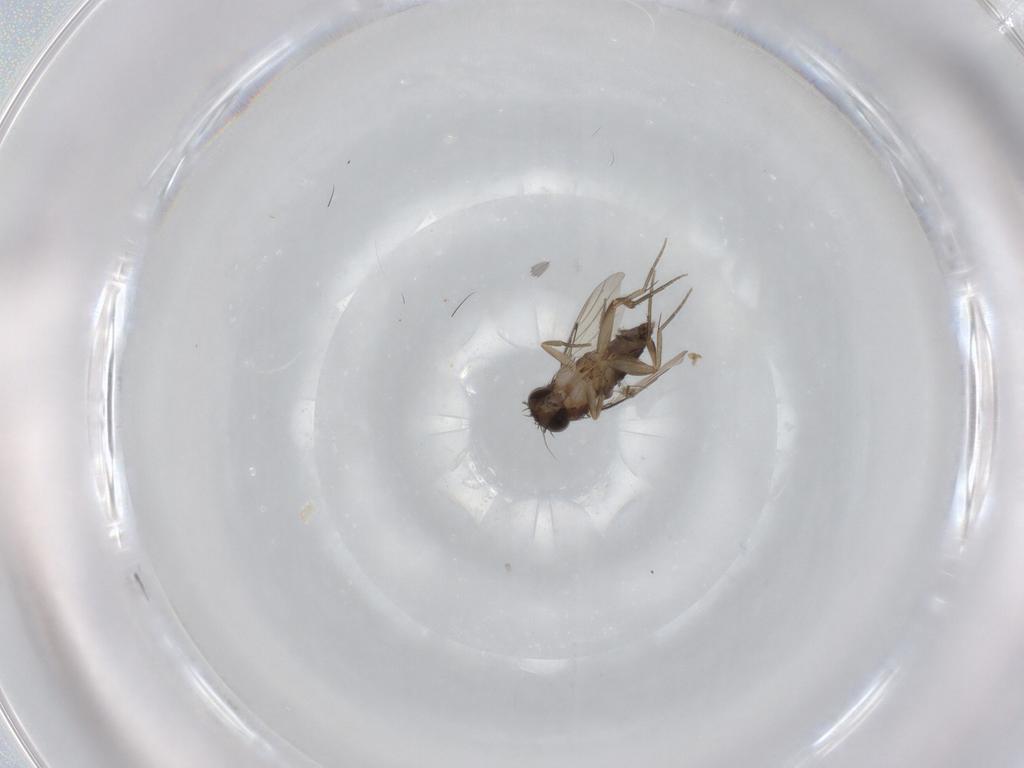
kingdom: Animalia
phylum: Arthropoda
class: Insecta
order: Diptera
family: Phoridae
